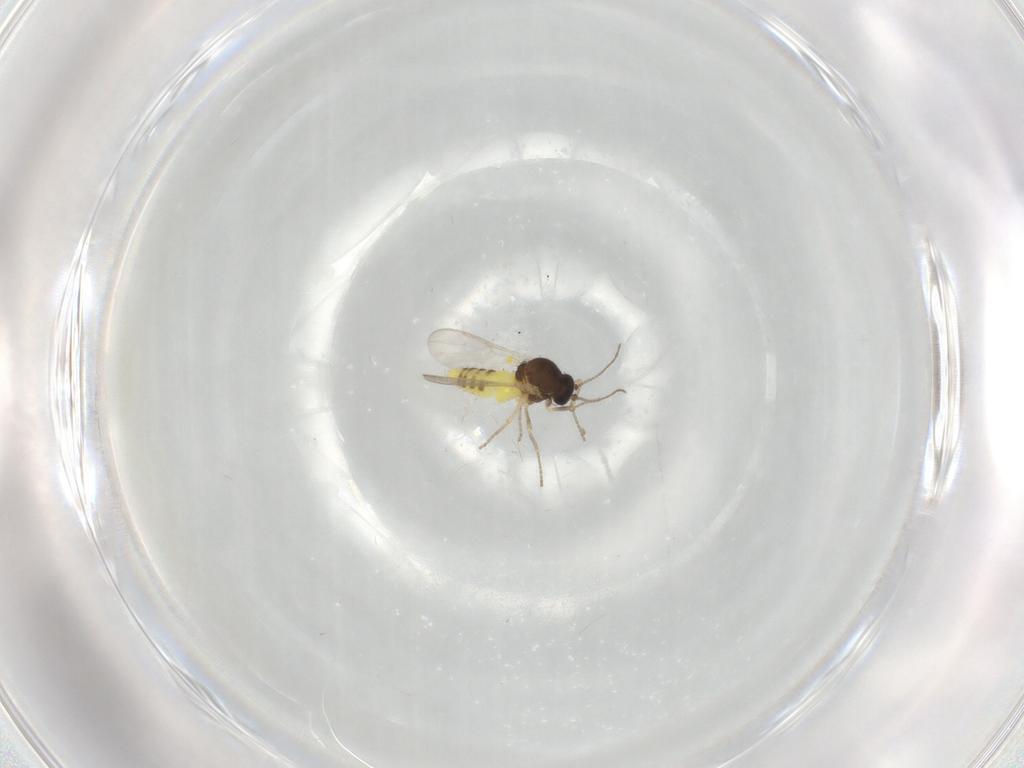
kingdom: Animalia
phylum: Arthropoda
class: Insecta
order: Diptera
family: Ceratopogonidae
